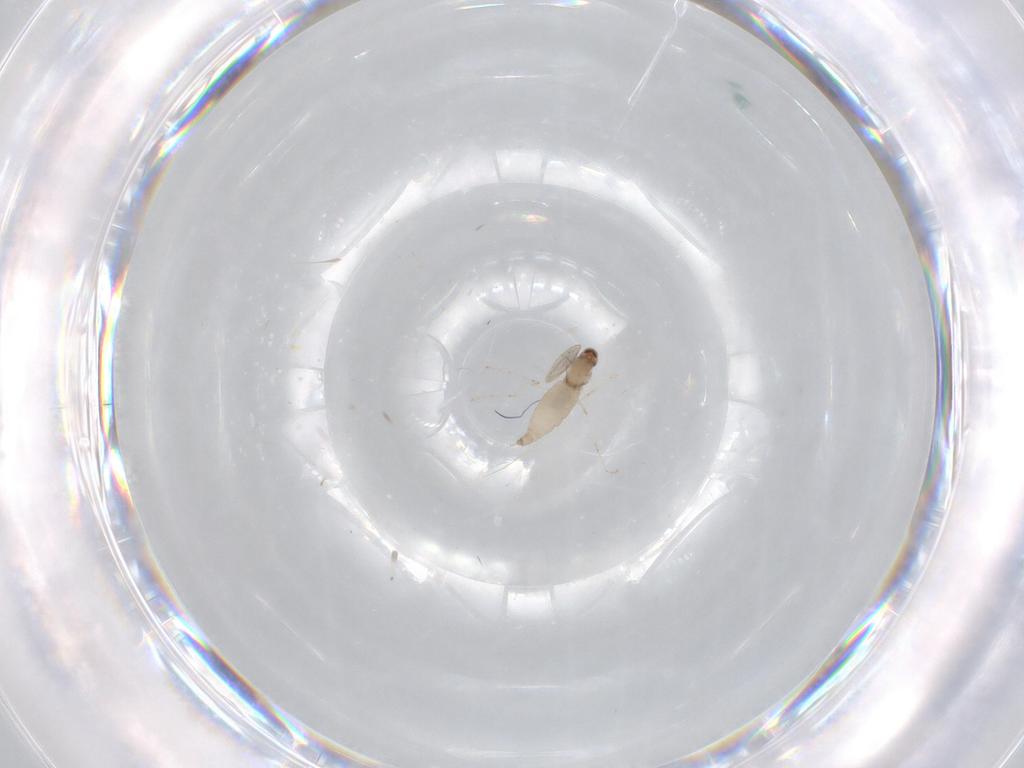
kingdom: Animalia
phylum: Arthropoda
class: Insecta
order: Diptera
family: Cecidomyiidae
